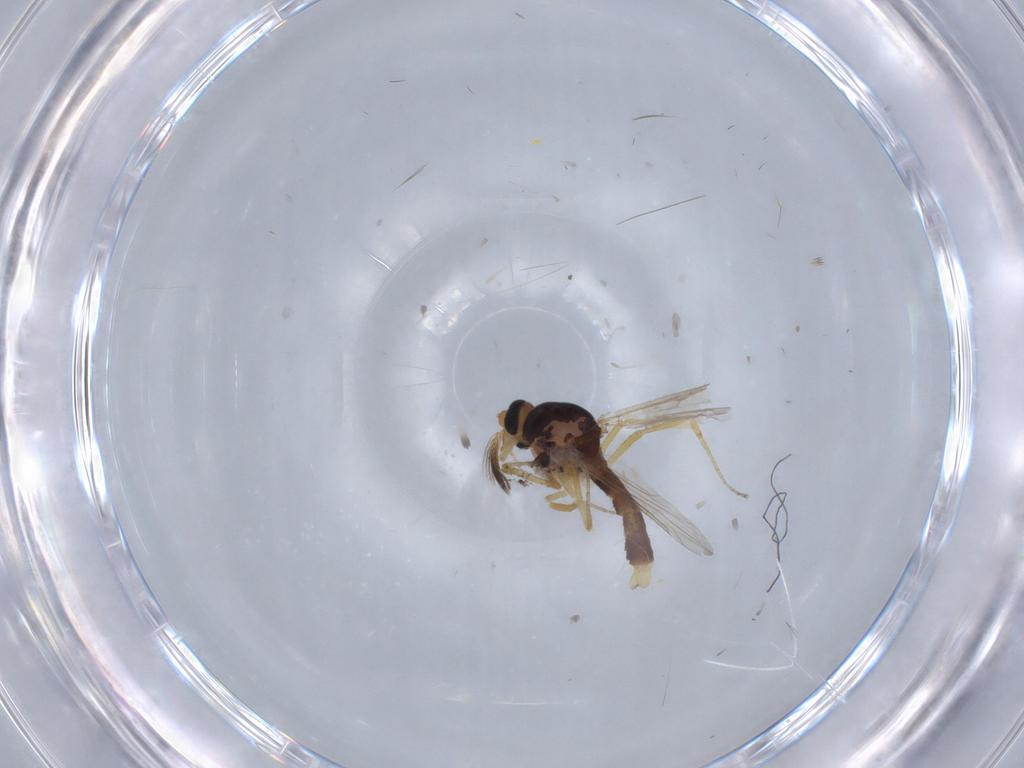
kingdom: Animalia
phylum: Arthropoda
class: Insecta
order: Diptera
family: Ceratopogonidae
